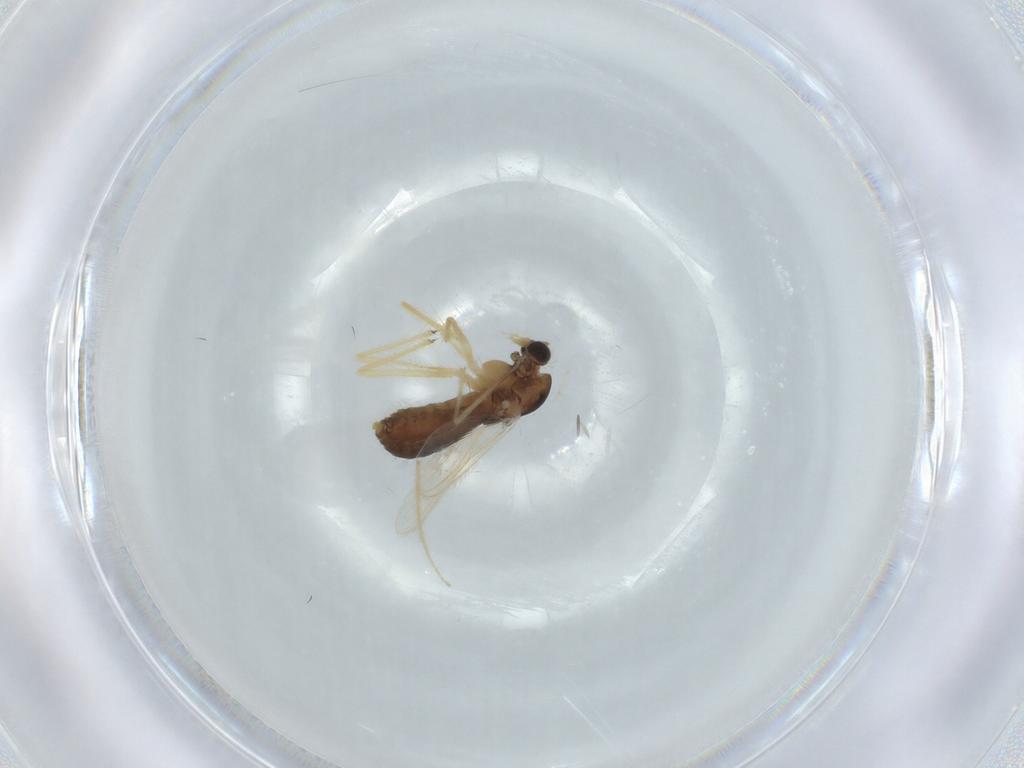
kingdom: Animalia
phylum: Arthropoda
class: Insecta
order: Diptera
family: Chironomidae
